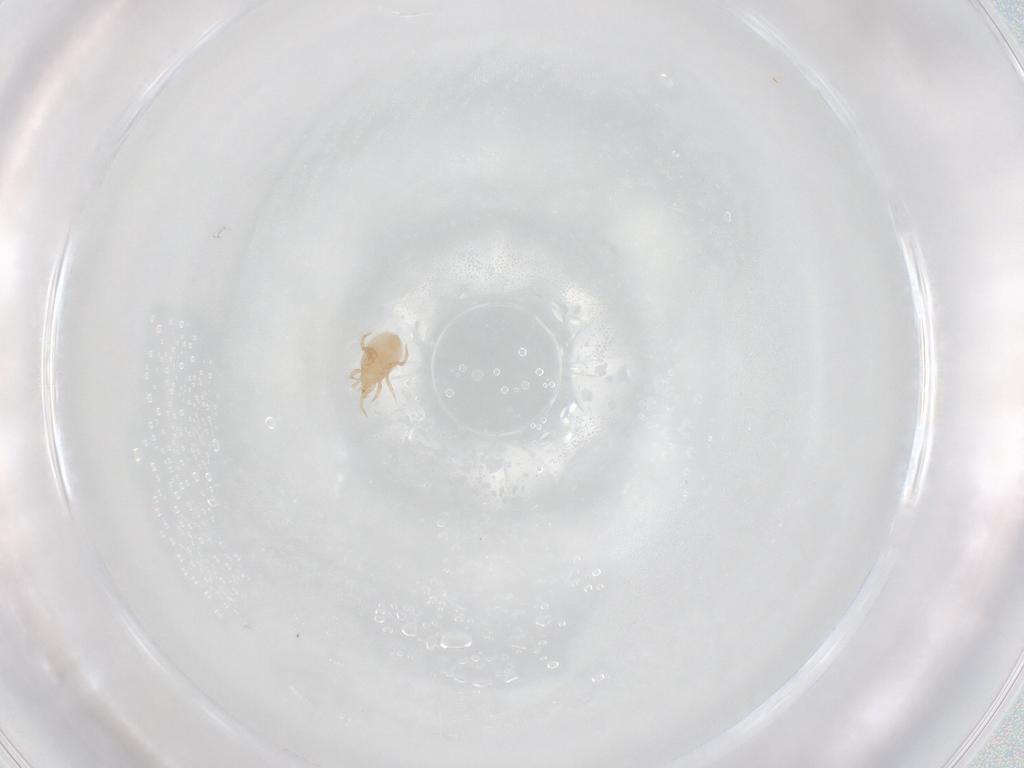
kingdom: Animalia
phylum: Arthropoda
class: Arachnida
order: Mesostigmata
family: Phytoseiidae
